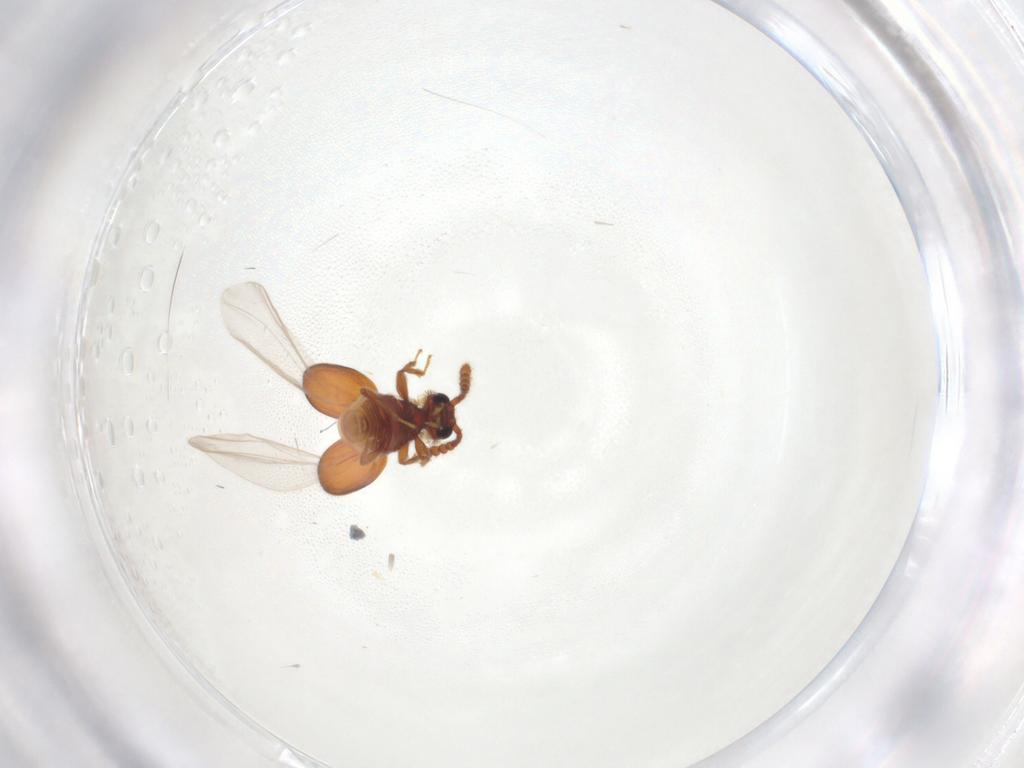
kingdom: Animalia
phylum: Arthropoda
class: Insecta
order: Coleoptera
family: Staphylinidae
